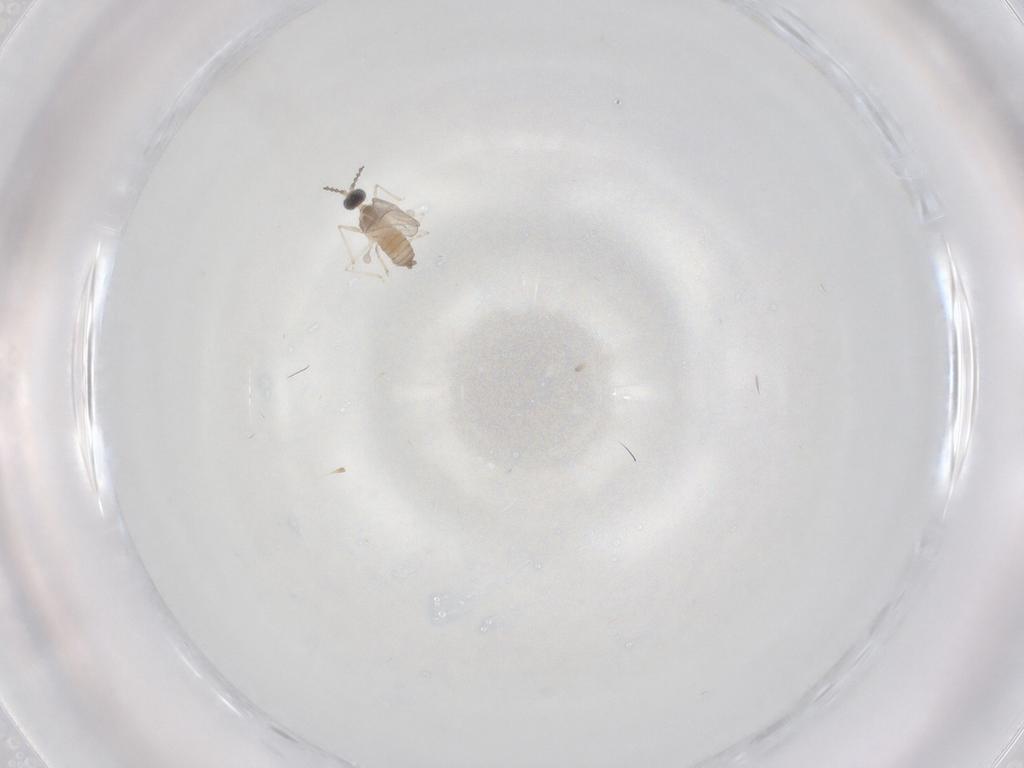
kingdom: Animalia
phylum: Arthropoda
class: Insecta
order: Diptera
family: Cecidomyiidae
